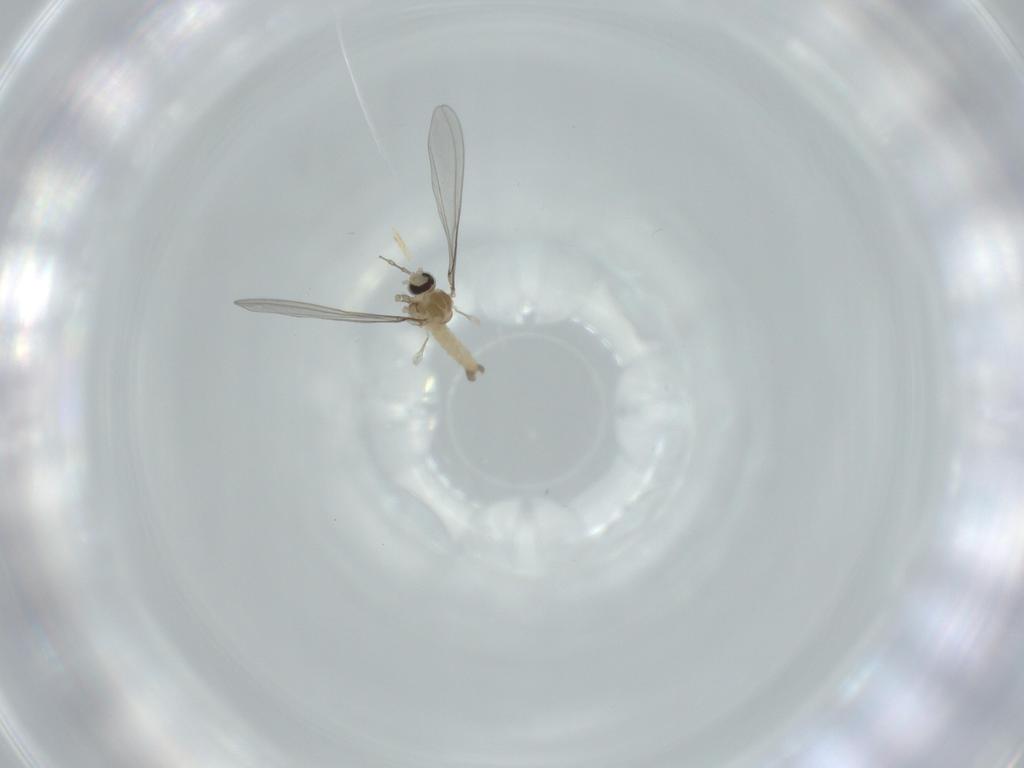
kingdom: Animalia
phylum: Arthropoda
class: Insecta
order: Diptera
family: Cecidomyiidae
